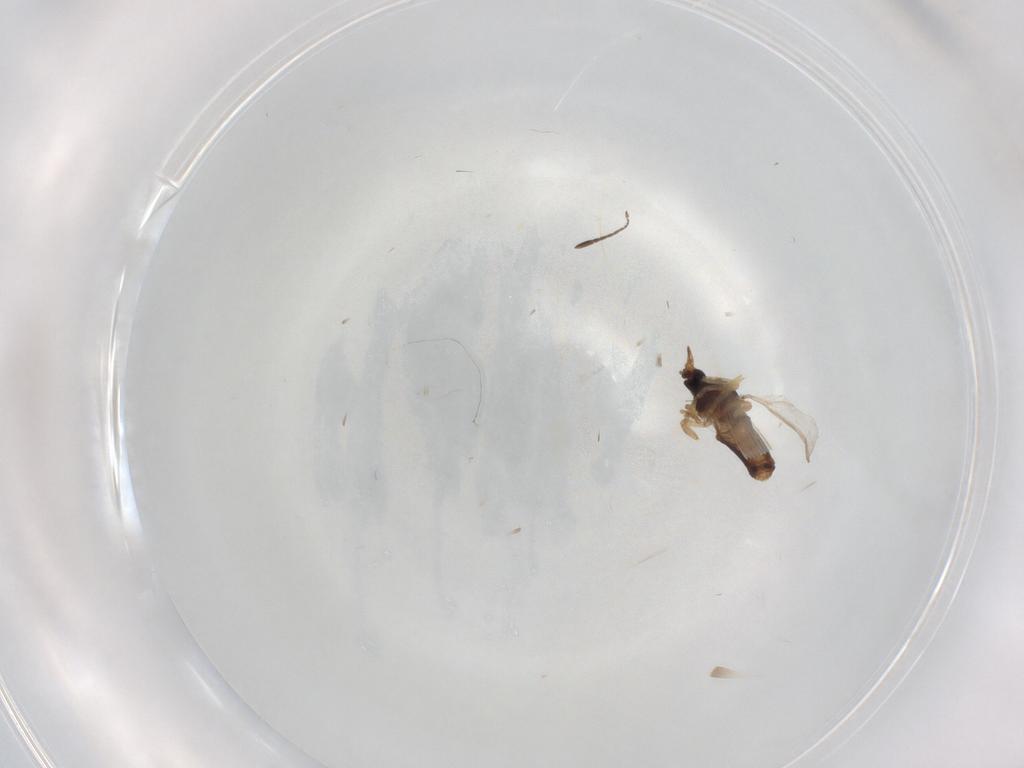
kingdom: Animalia
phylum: Arthropoda
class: Insecta
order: Diptera
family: Ceratopogonidae
